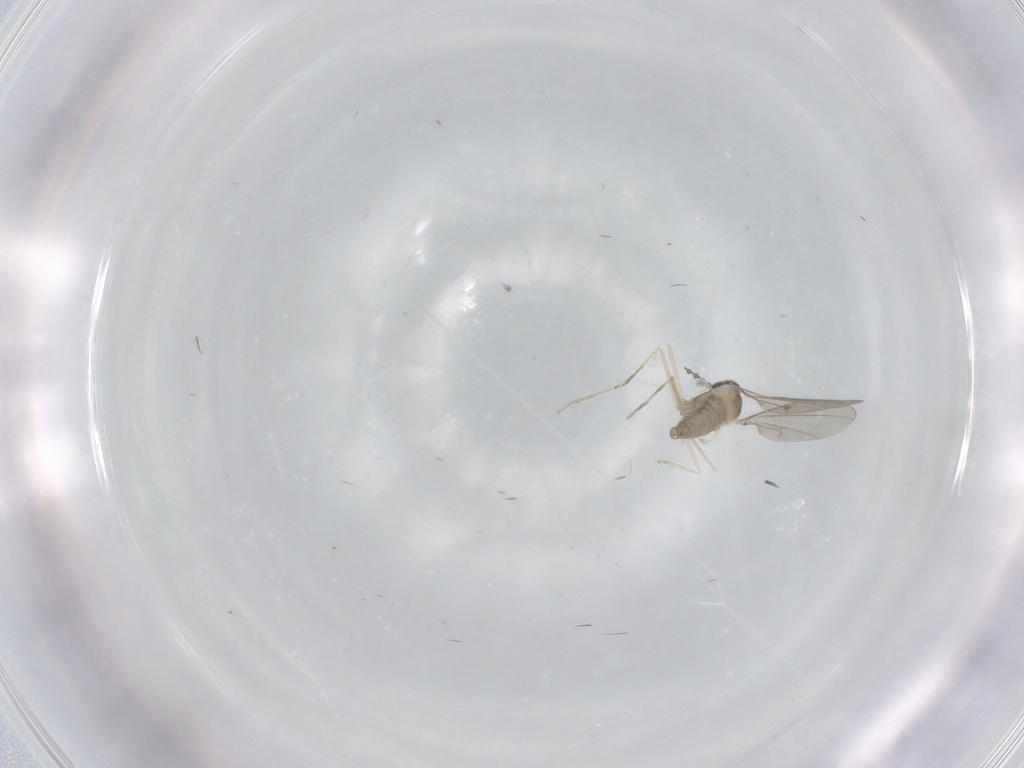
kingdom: Animalia
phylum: Arthropoda
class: Insecta
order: Diptera
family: Cecidomyiidae
